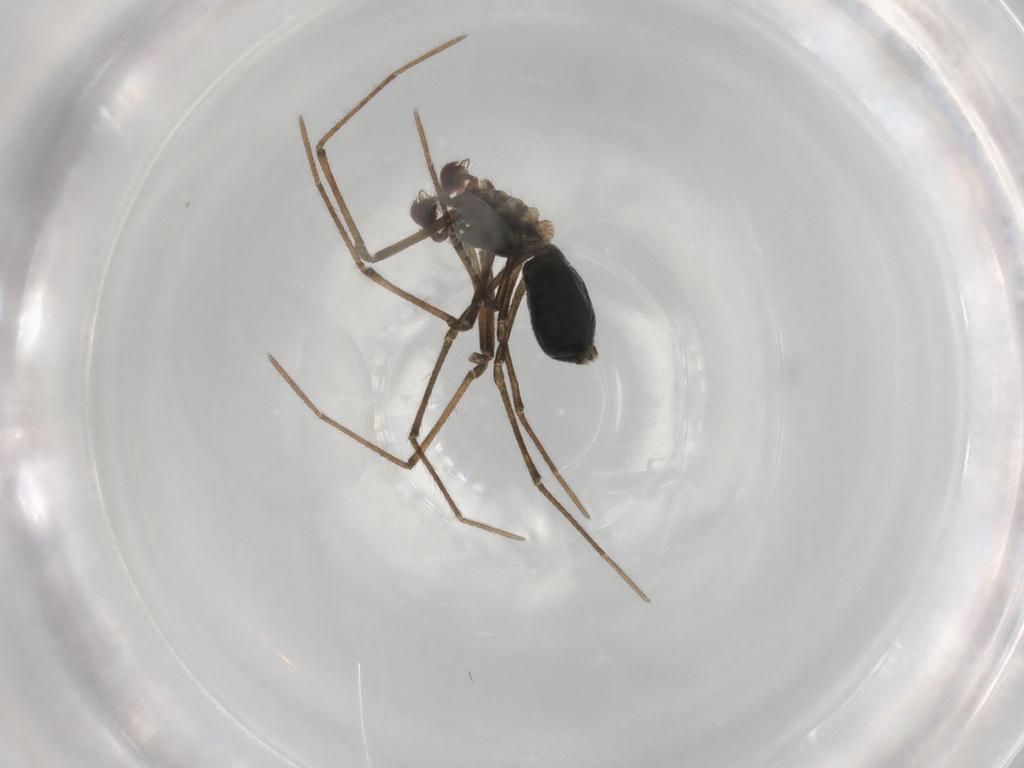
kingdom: Animalia
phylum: Arthropoda
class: Arachnida
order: Araneae
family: Linyphiidae
